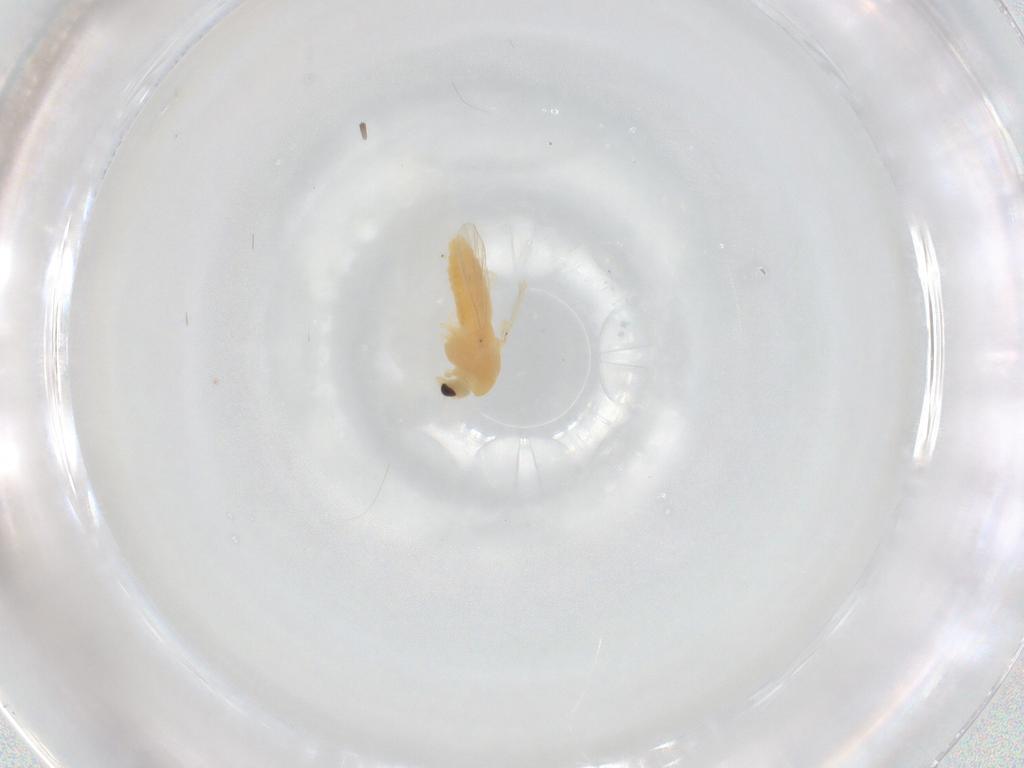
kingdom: Animalia
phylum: Arthropoda
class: Insecta
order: Diptera
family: Chironomidae
